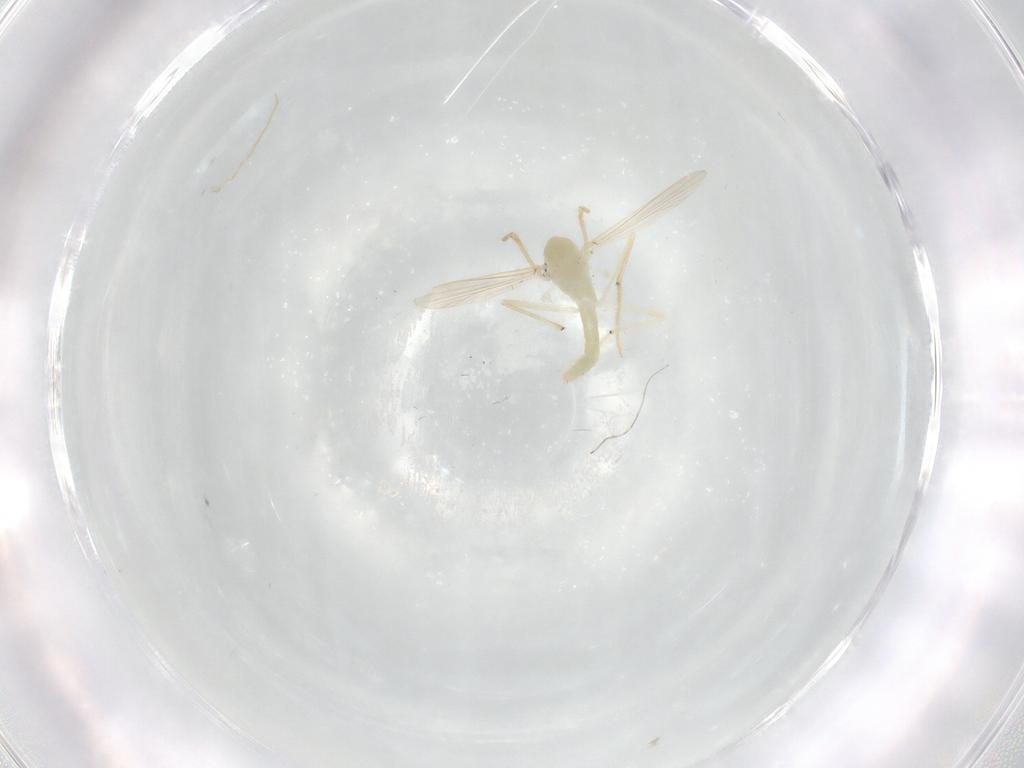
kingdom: Animalia
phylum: Arthropoda
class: Insecta
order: Diptera
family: Chironomidae
